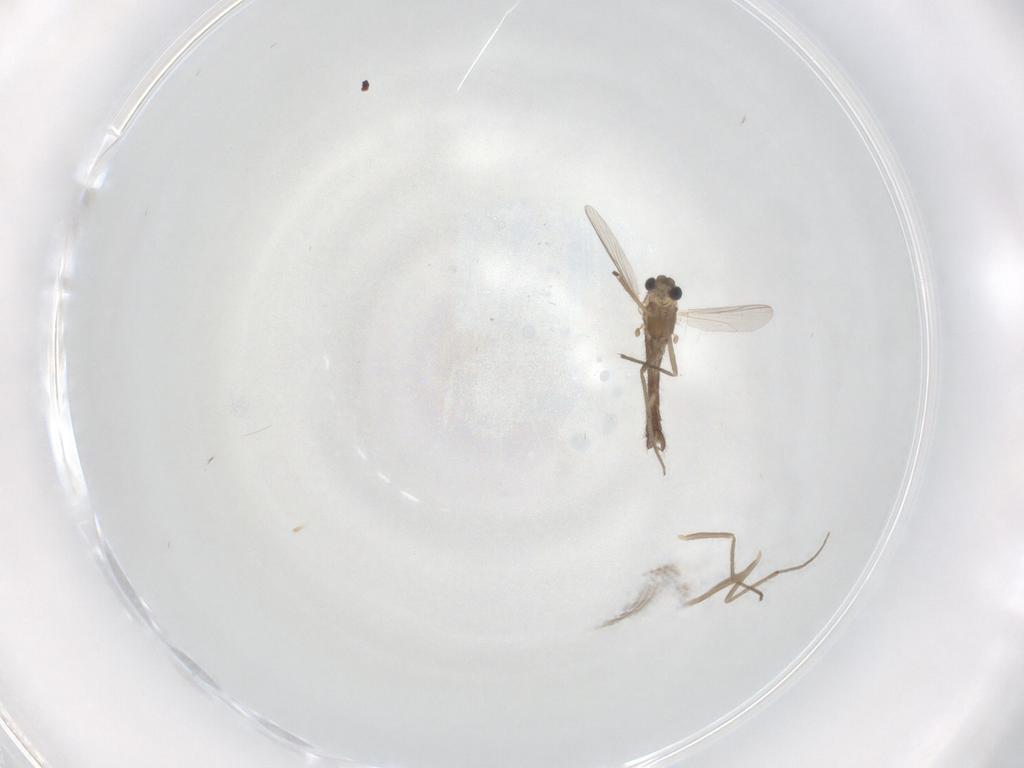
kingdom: Animalia
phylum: Arthropoda
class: Insecta
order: Diptera
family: Chironomidae
